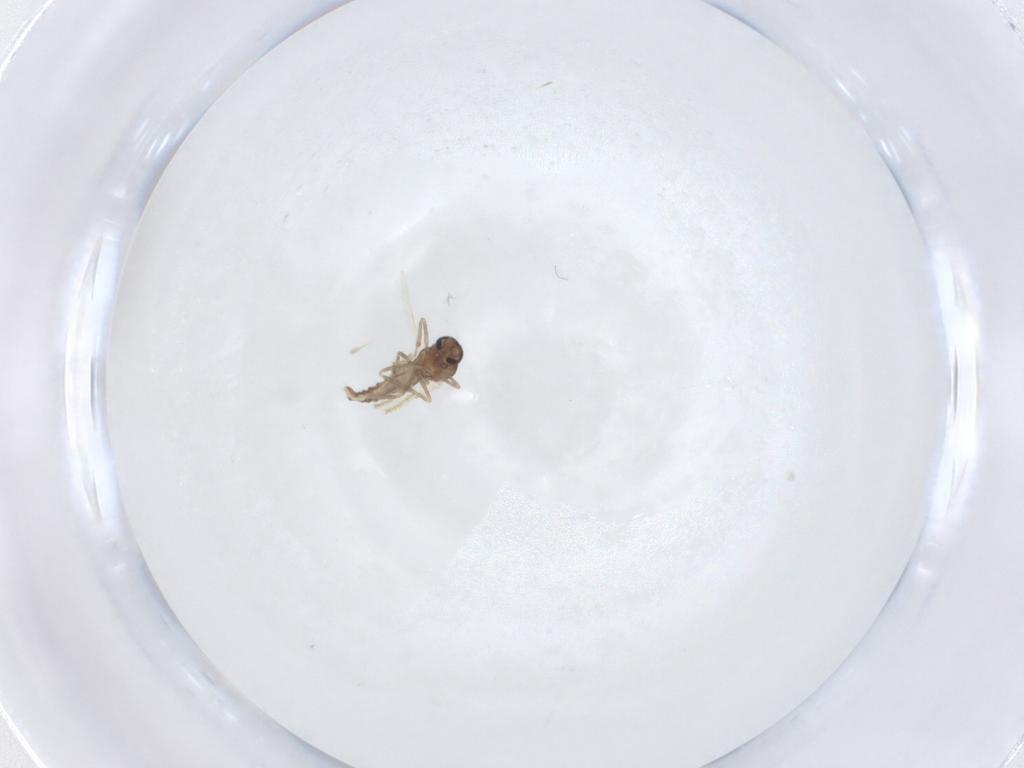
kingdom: Animalia
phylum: Arthropoda
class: Insecta
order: Diptera
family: Ceratopogonidae
